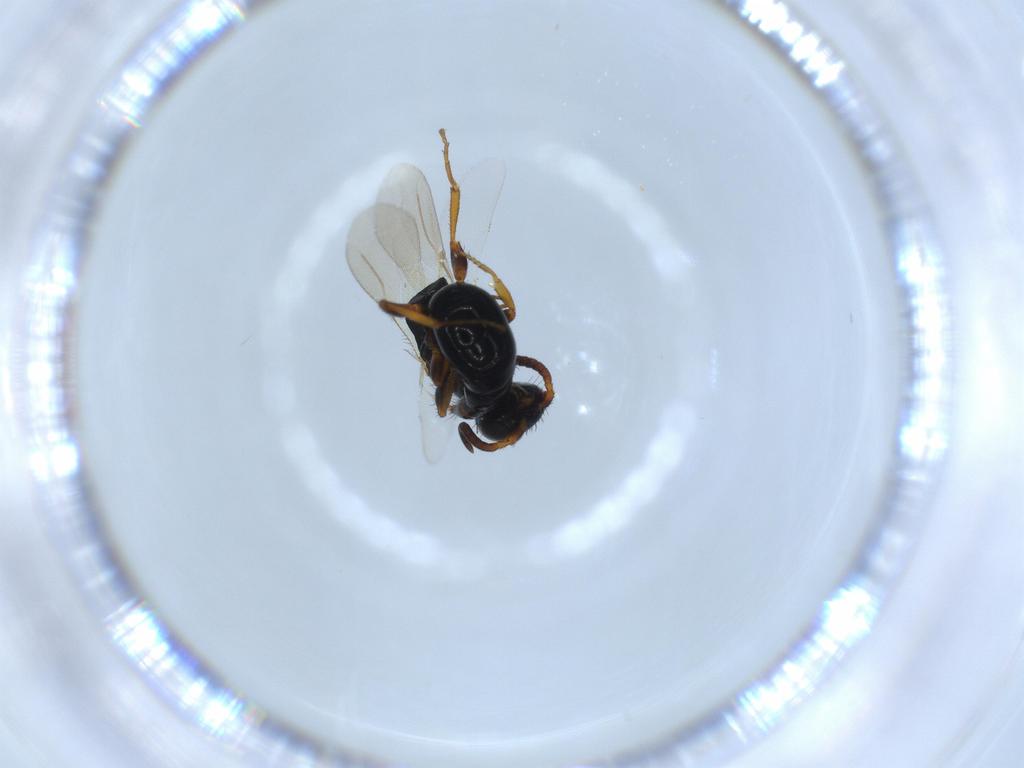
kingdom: Animalia
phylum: Arthropoda
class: Insecta
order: Hymenoptera
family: Bethylidae
